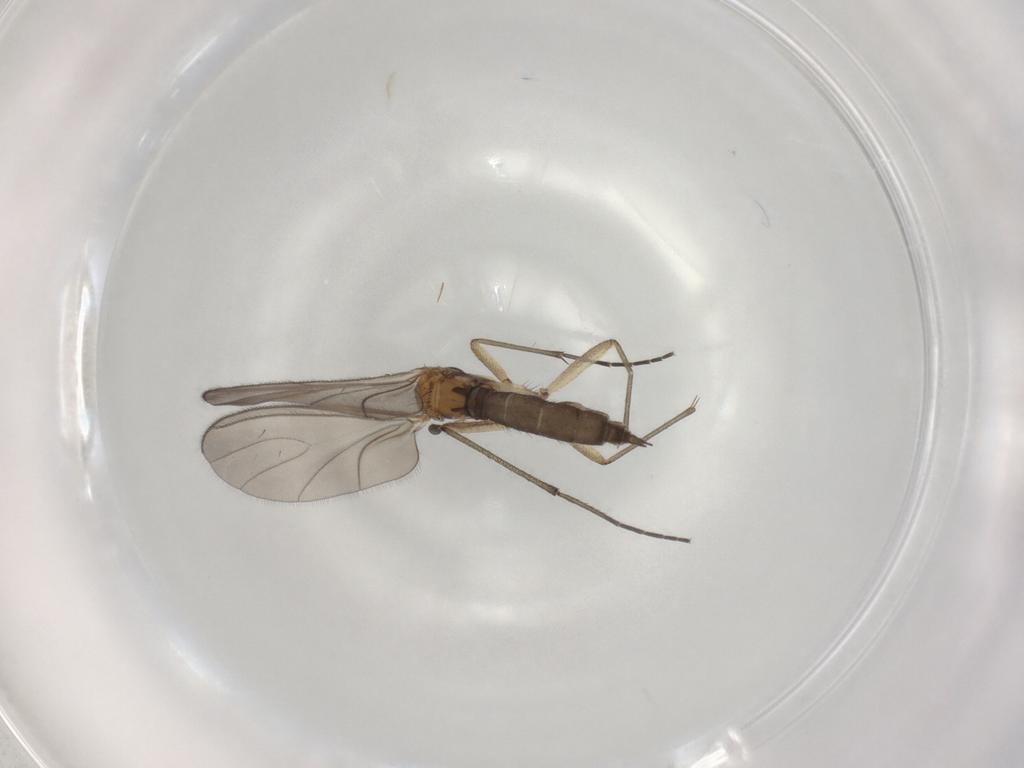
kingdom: Animalia
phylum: Arthropoda
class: Insecta
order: Diptera
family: Sciaridae
